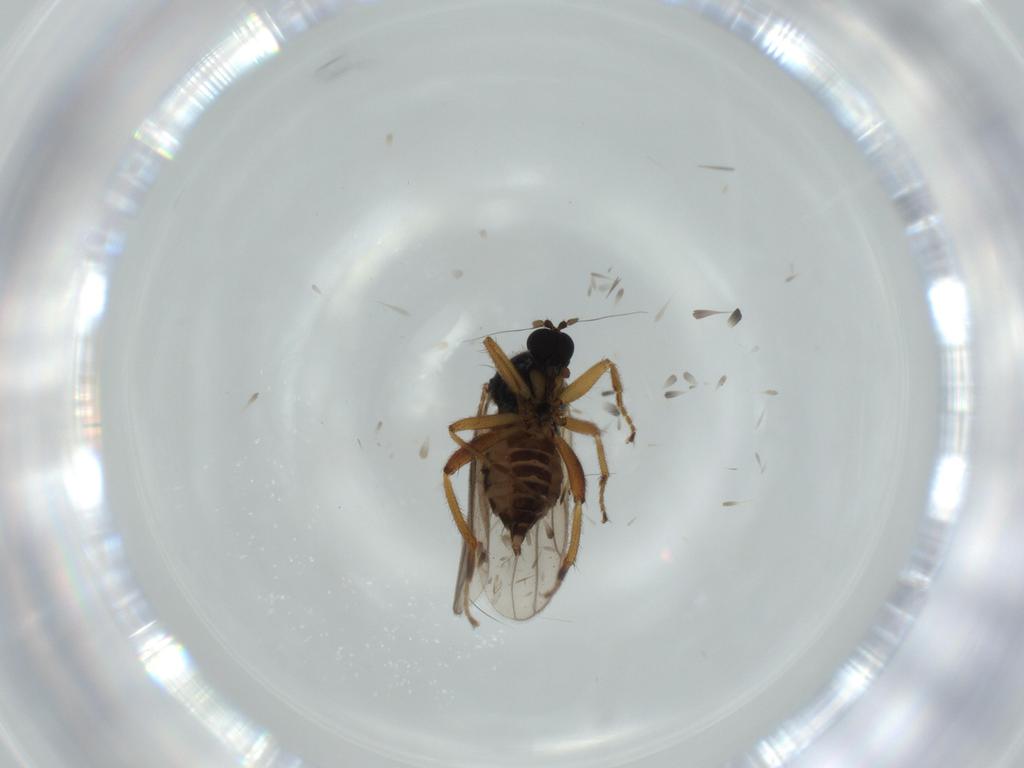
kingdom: Animalia
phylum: Arthropoda
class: Insecta
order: Diptera
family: Hybotidae
